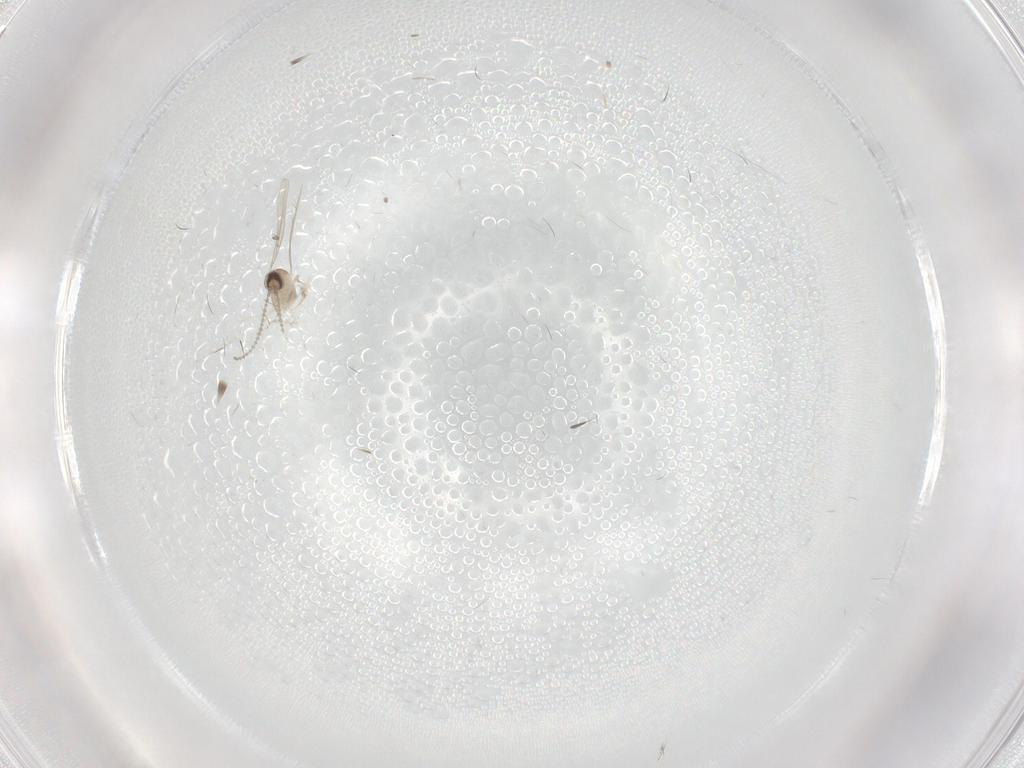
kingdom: Animalia
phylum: Arthropoda
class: Insecta
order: Diptera
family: Cecidomyiidae
